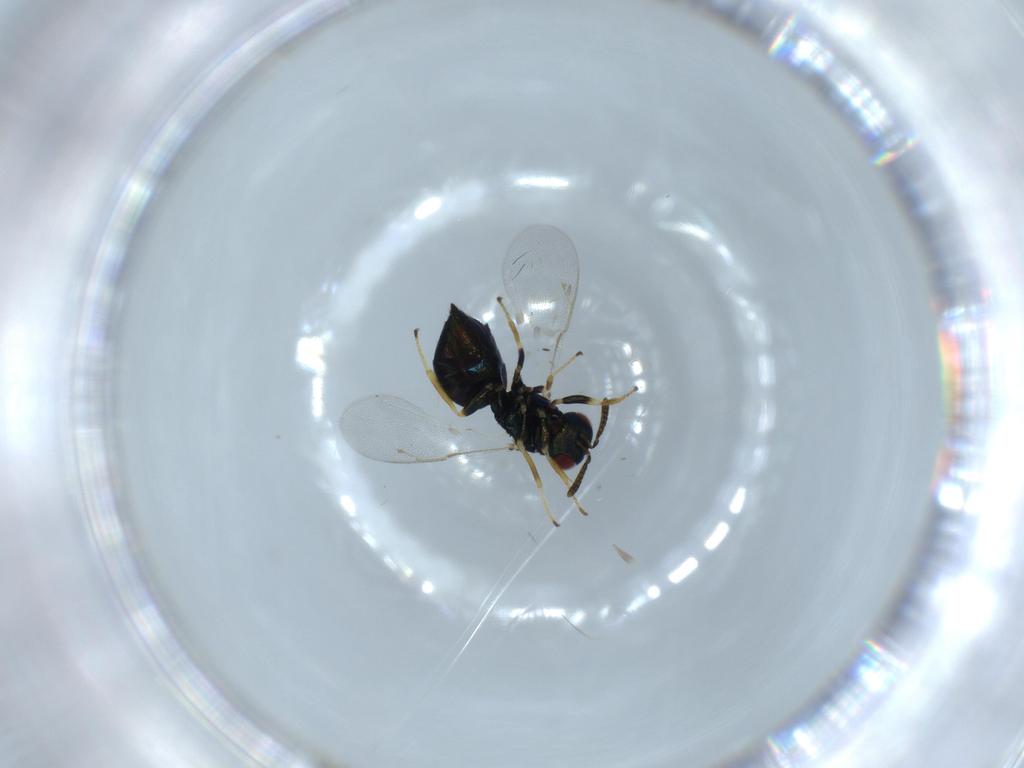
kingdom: Animalia
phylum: Arthropoda
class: Insecta
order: Hymenoptera
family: Pteromalidae
